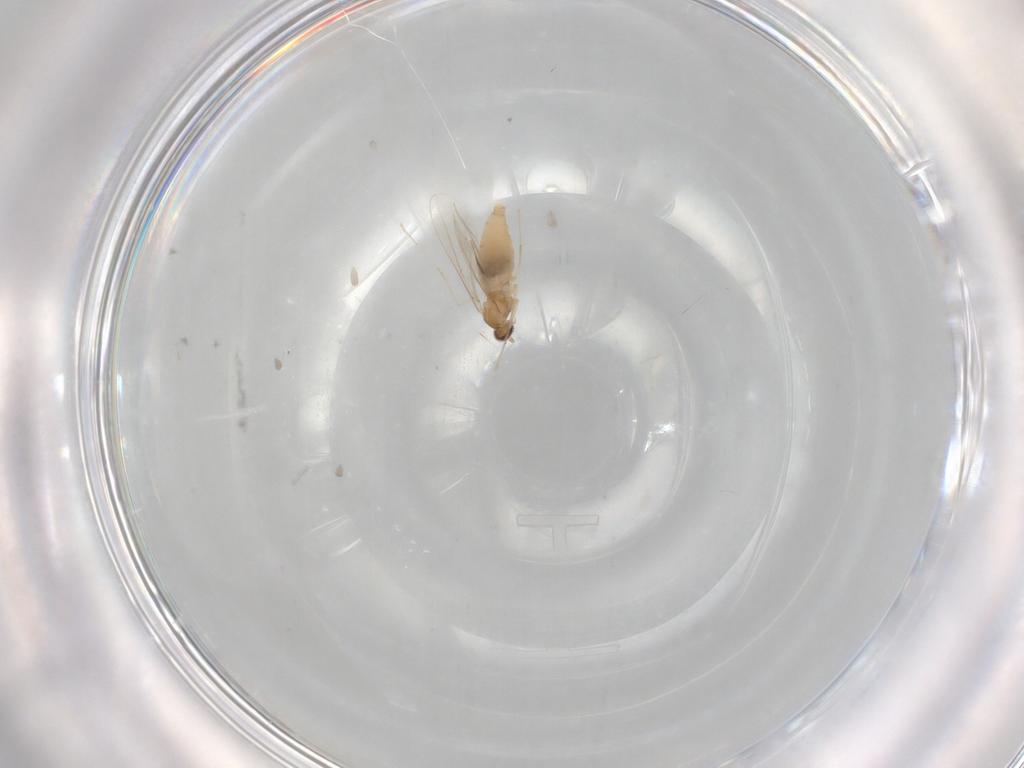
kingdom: Animalia
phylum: Arthropoda
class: Insecta
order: Diptera
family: Cecidomyiidae
